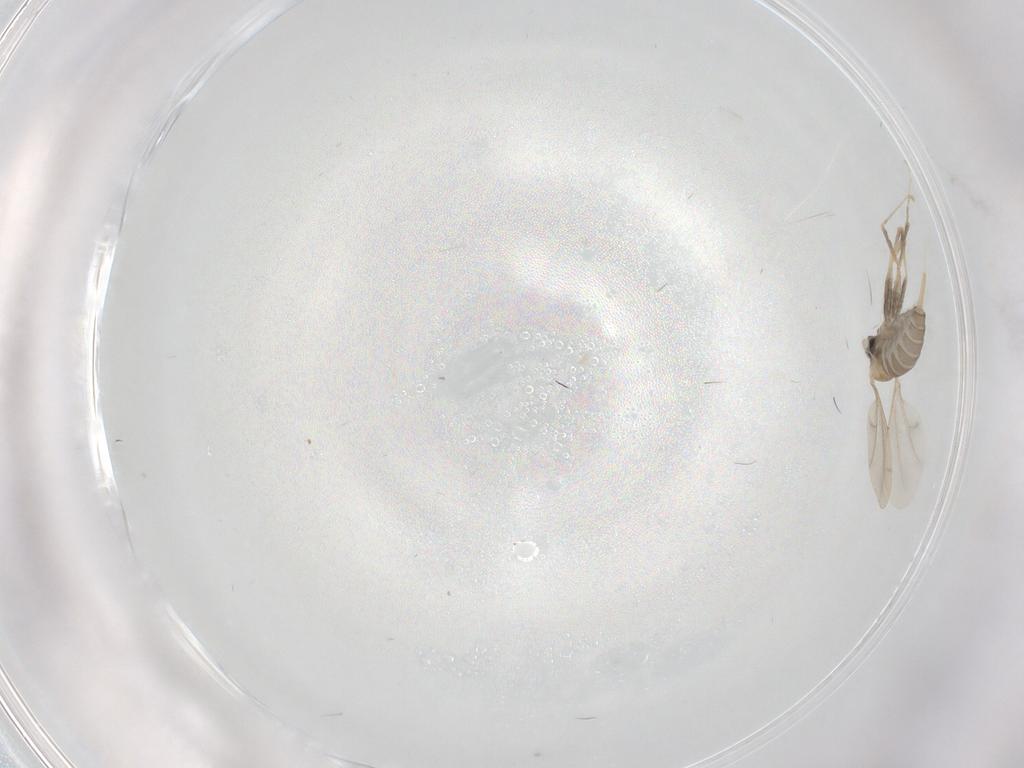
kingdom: Animalia
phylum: Arthropoda
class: Insecta
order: Diptera
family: Cecidomyiidae
